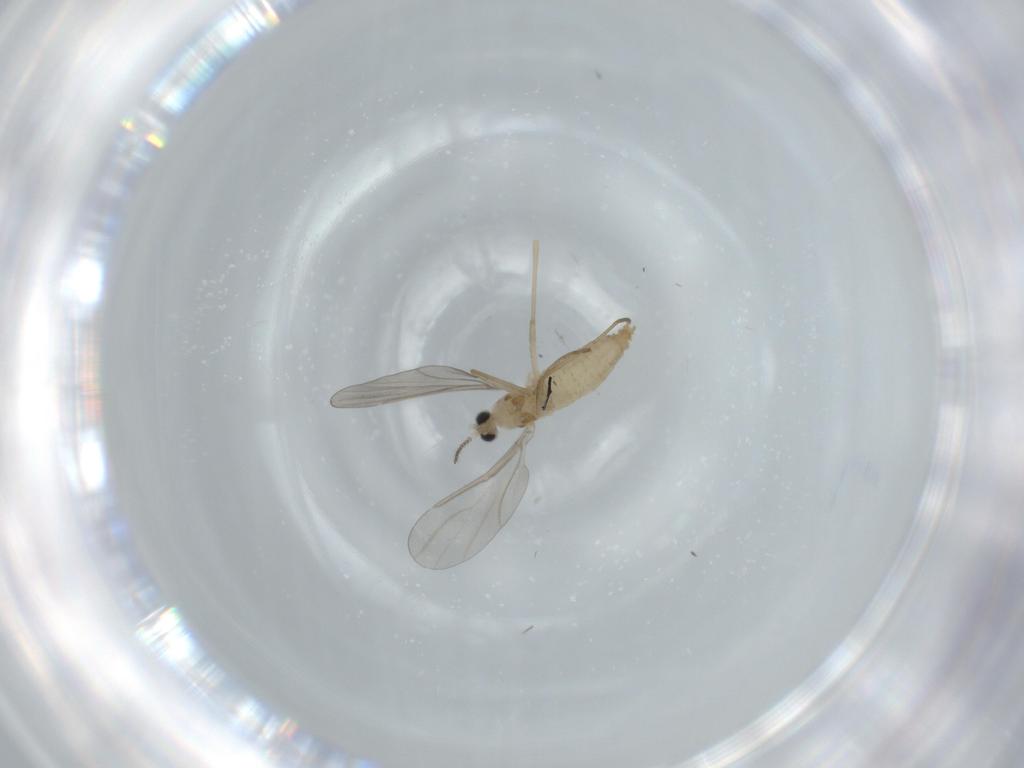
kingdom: Animalia
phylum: Arthropoda
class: Insecta
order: Diptera
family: Cecidomyiidae
